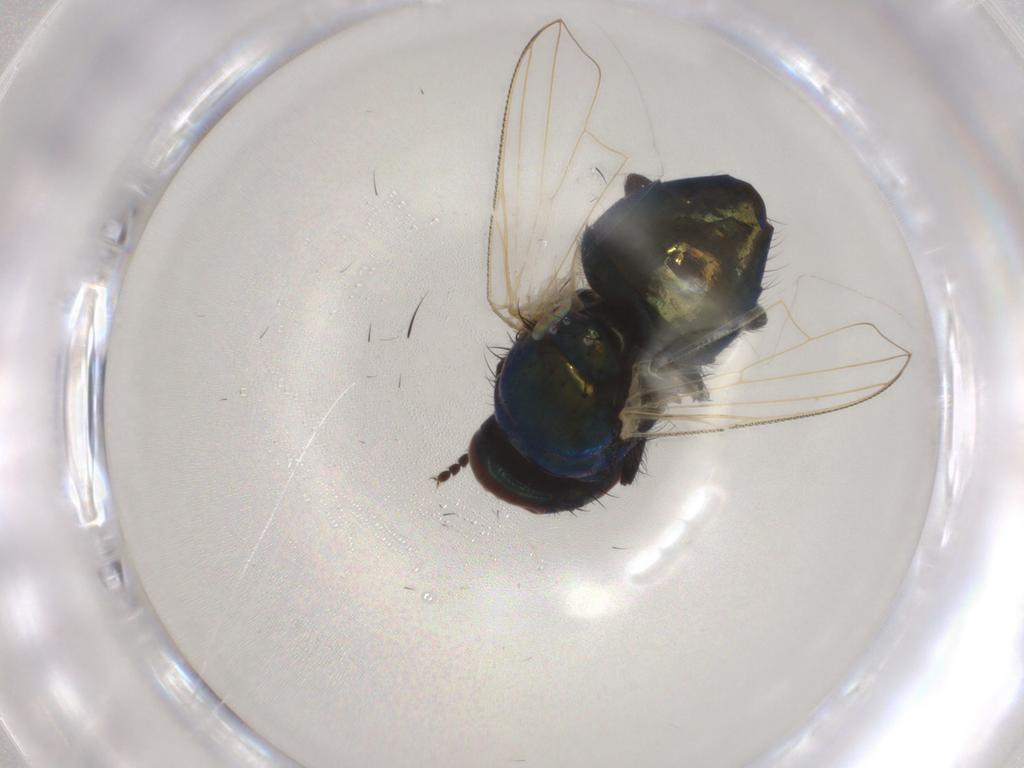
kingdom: Animalia
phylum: Arthropoda
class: Insecta
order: Diptera
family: Muscidae
